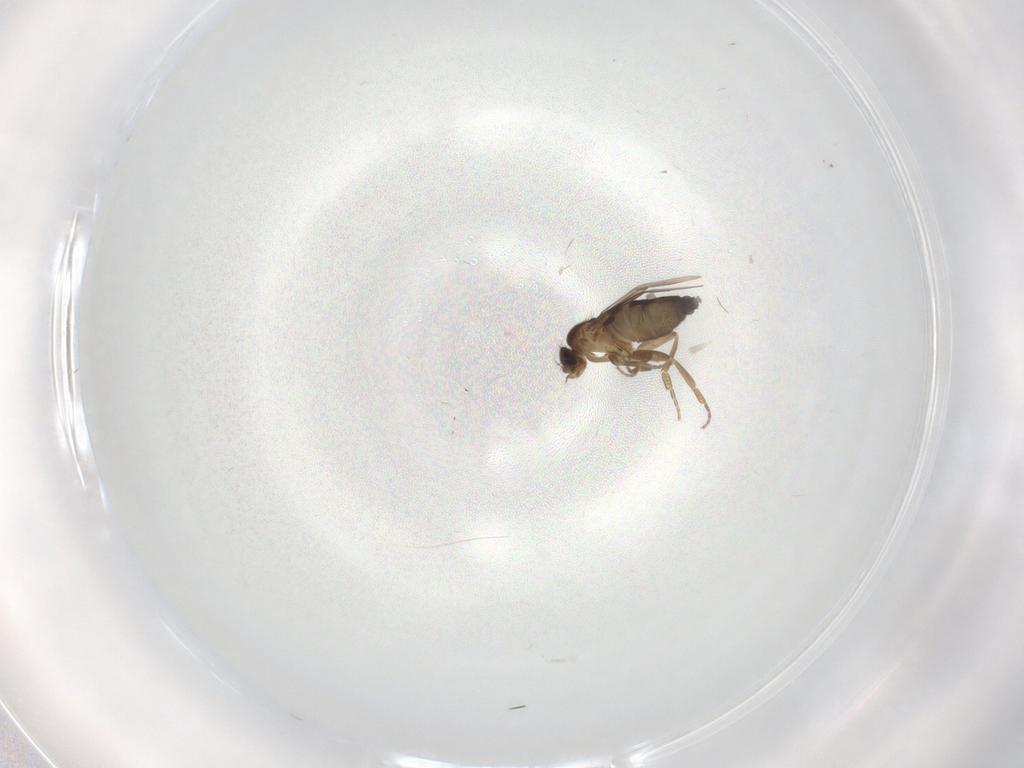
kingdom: Animalia
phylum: Arthropoda
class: Insecta
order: Diptera
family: Phoridae
